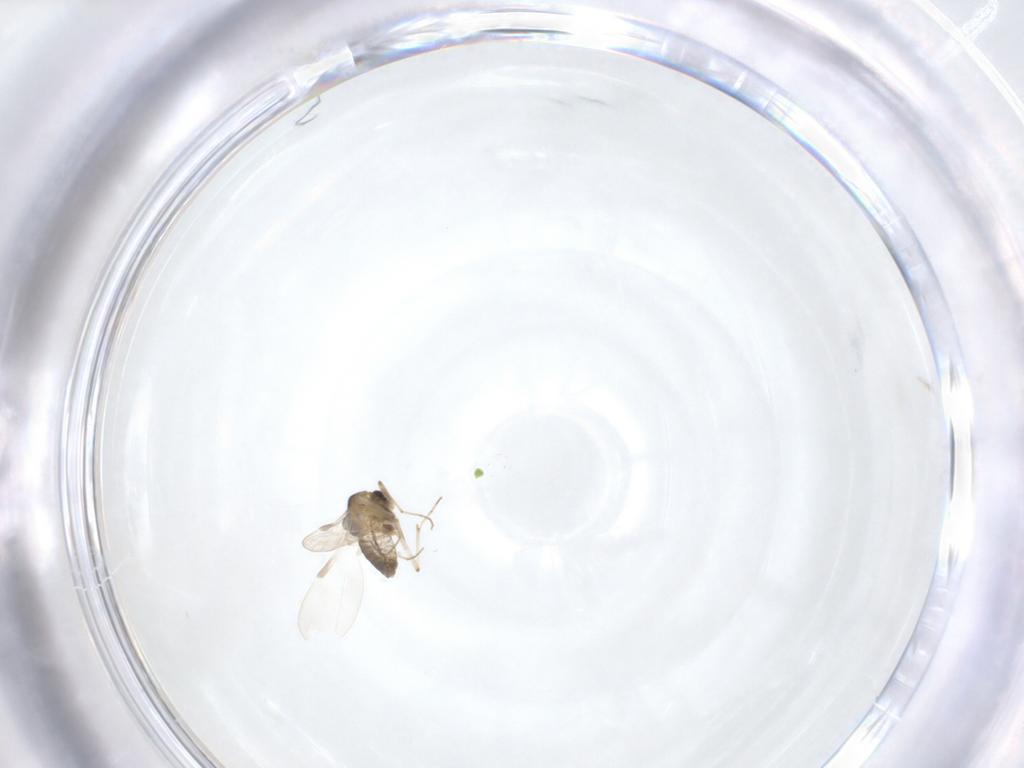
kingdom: Animalia
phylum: Arthropoda
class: Insecta
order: Diptera
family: Chironomidae
